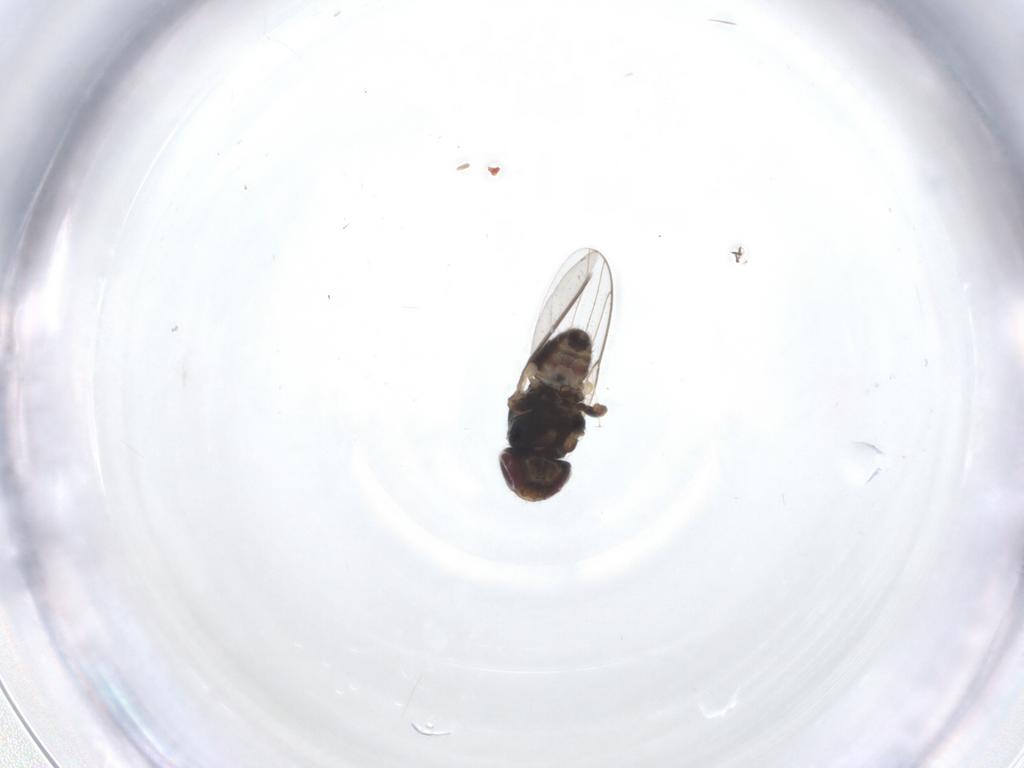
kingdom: Animalia
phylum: Arthropoda
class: Insecta
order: Diptera
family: Chloropidae
